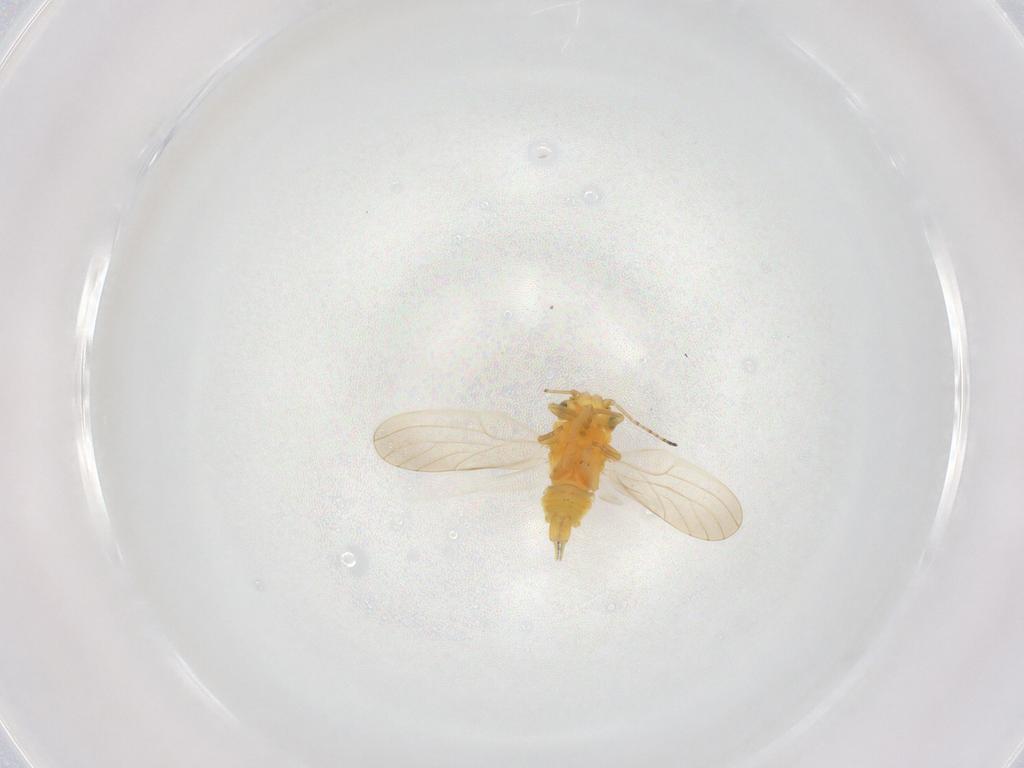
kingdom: Animalia
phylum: Arthropoda
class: Insecta
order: Hemiptera
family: Aphalaridae
